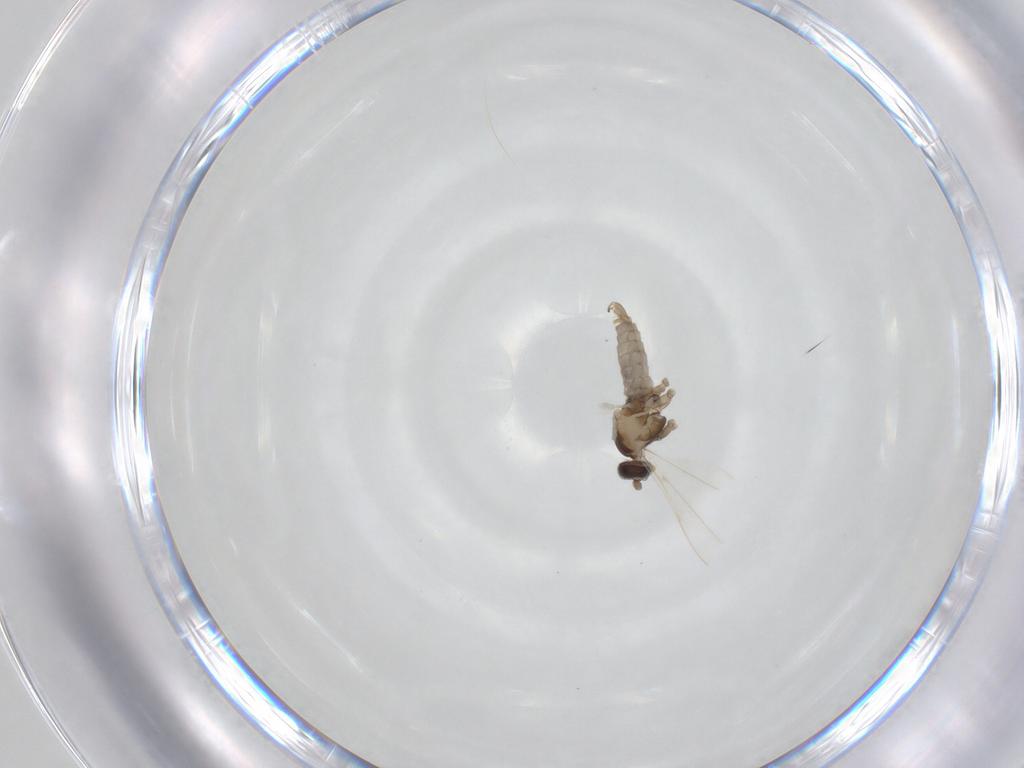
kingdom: Animalia
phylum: Arthropoda
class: Insecta
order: Diptera
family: Cecidomyiidae
